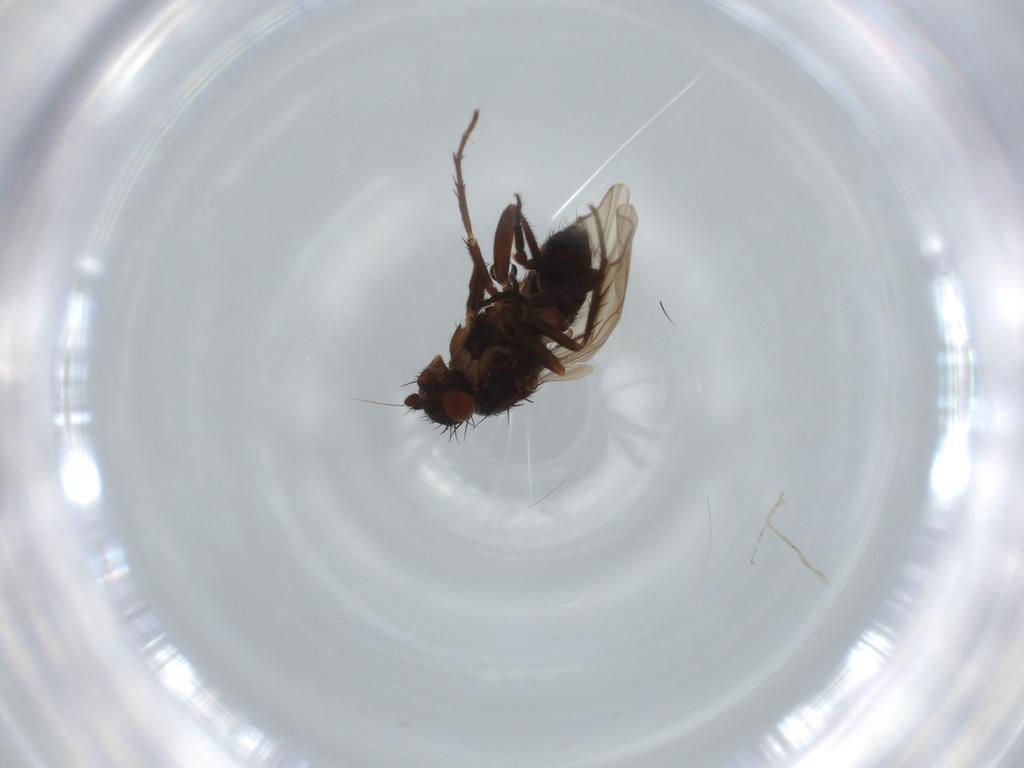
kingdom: Animalia
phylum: Arthropoda
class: Insecta
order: Diptera
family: Sphaeroceridae
